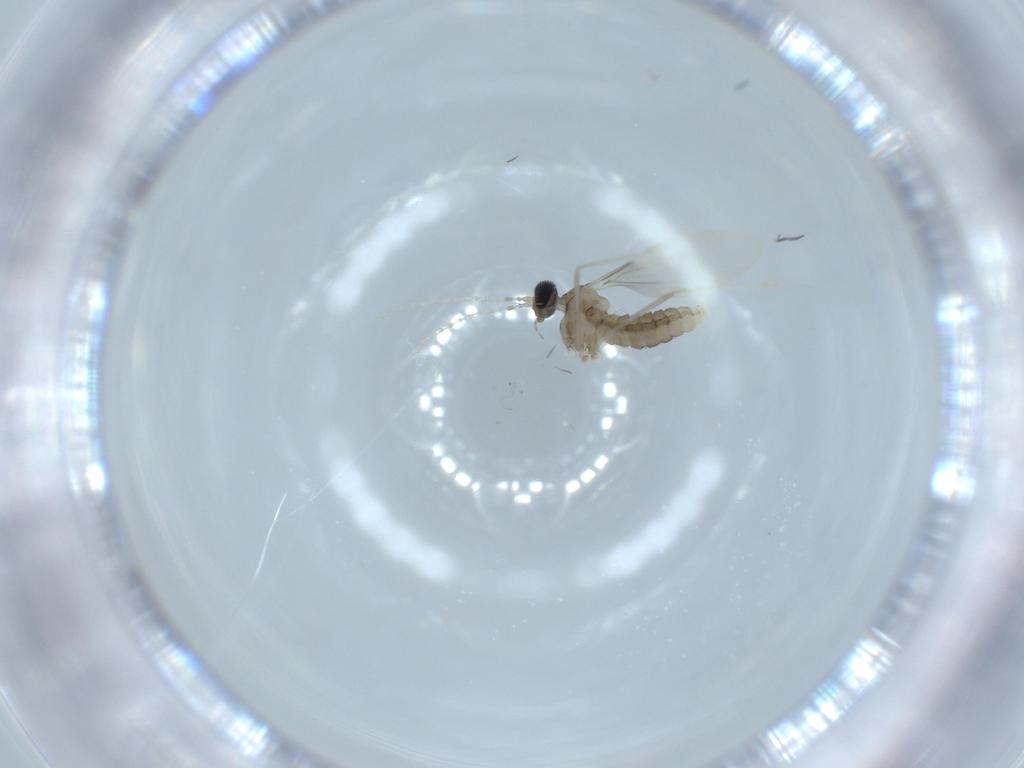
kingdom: Animalia
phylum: Arthropoda
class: Insecta
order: Diptera
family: Cecidomyiidae
